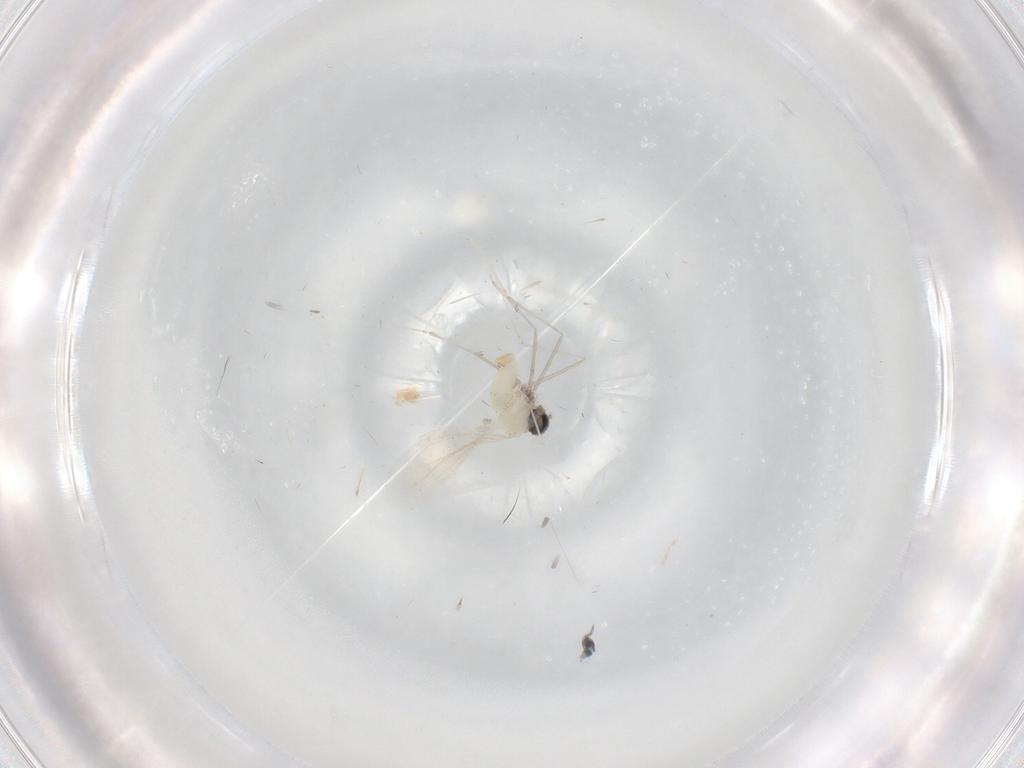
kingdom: Animalia
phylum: Arthropoda
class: Insecta
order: Diptera
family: Cecidomyiidae
